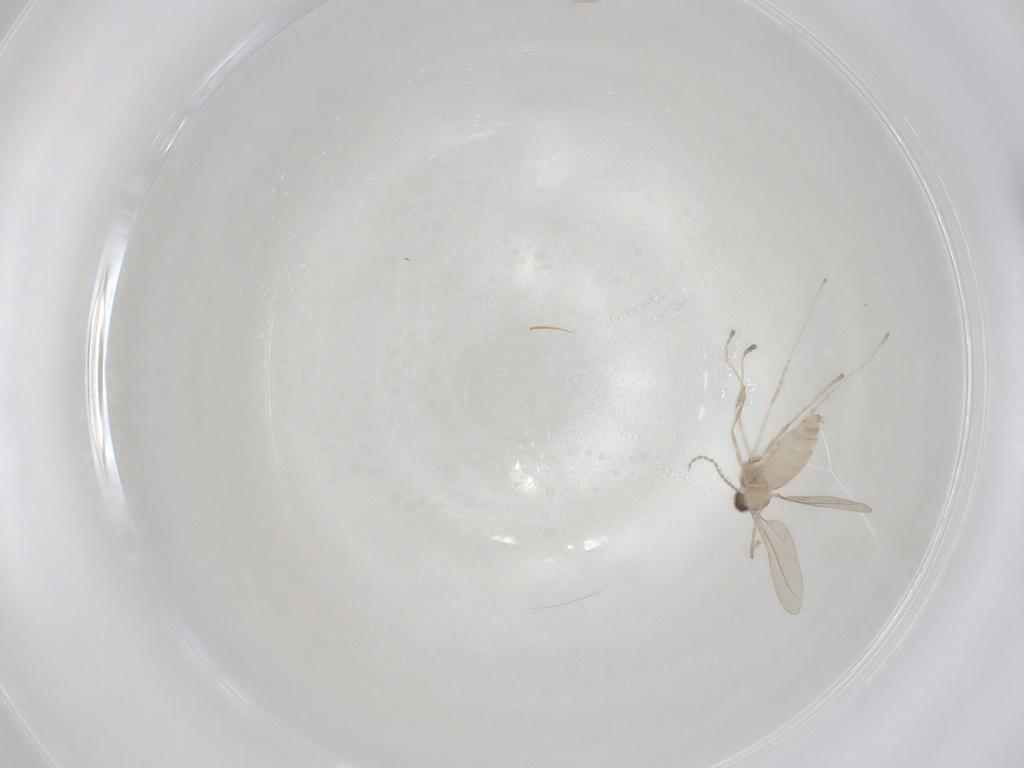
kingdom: Animalia
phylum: Arthropoda
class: Insecta
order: Diptera
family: Cecidomyiidae
